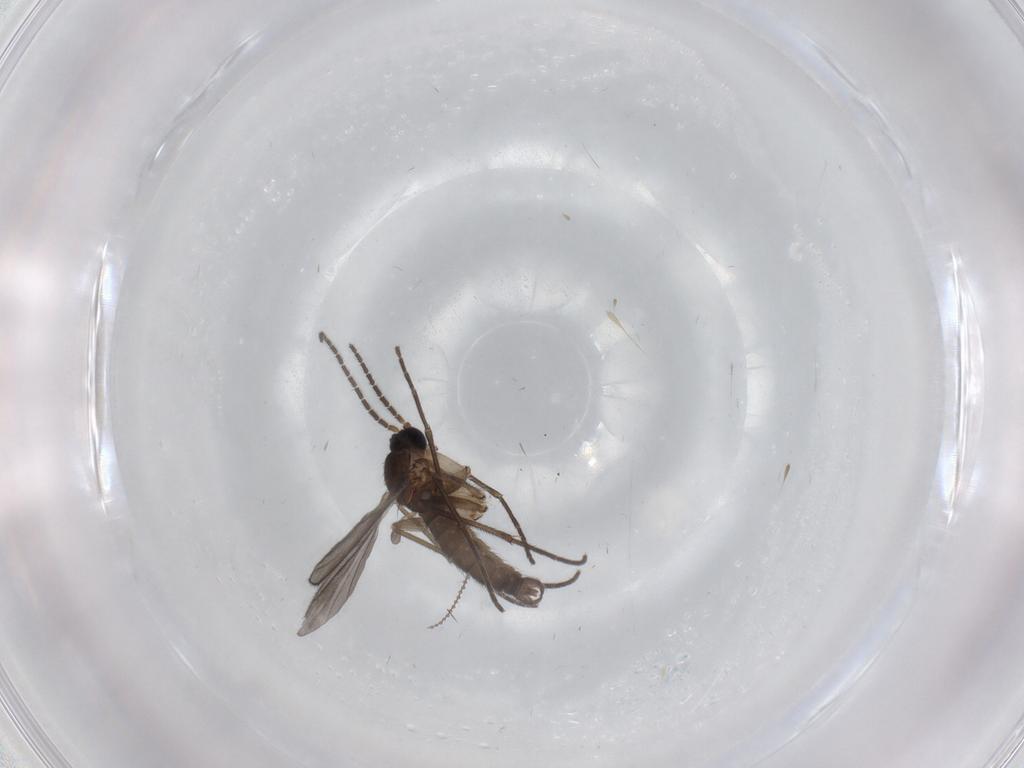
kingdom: Animalia
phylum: Arthropoda
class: Insecta
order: Diptera
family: Sciaridae
